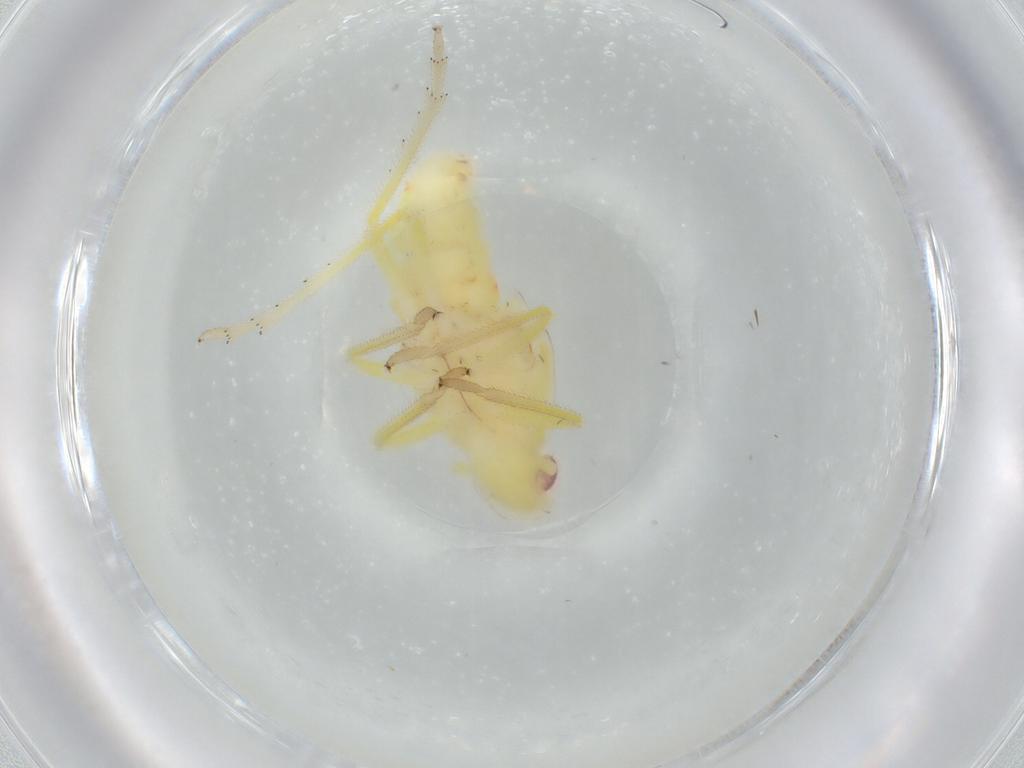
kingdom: Animalia
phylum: Arthropoda
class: Insecta
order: Hemiptera
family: Tropiduchidae
